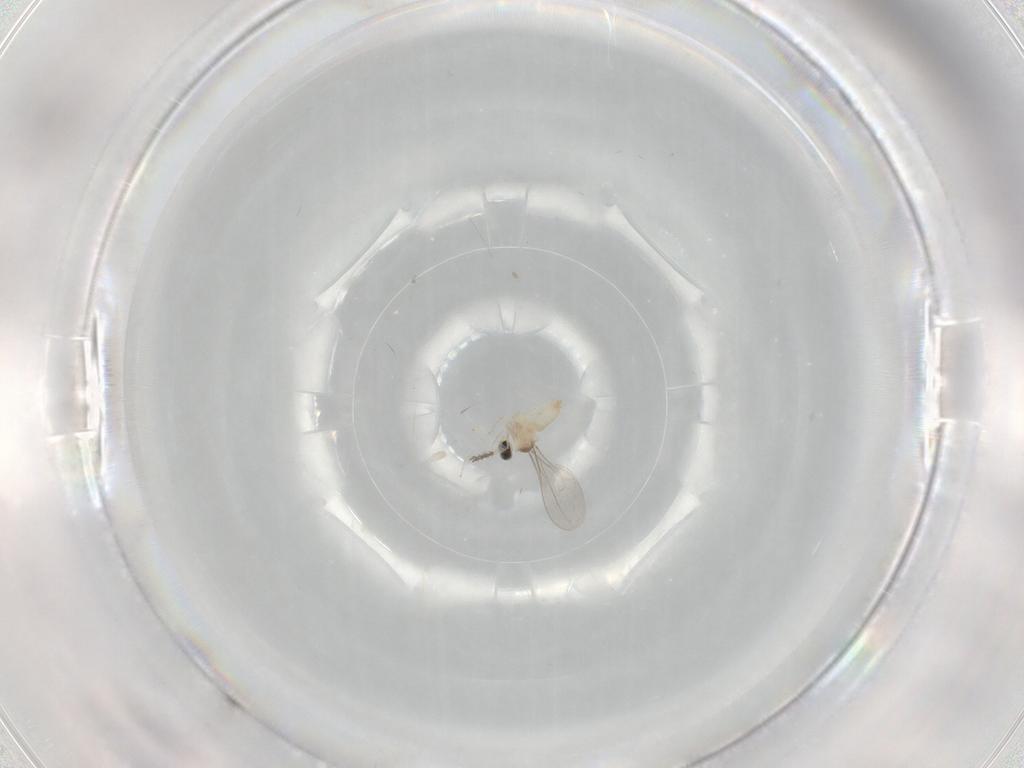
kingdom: Animalia
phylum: Arthropoda
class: Insecta
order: Diptera
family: Cecidomyiidae
